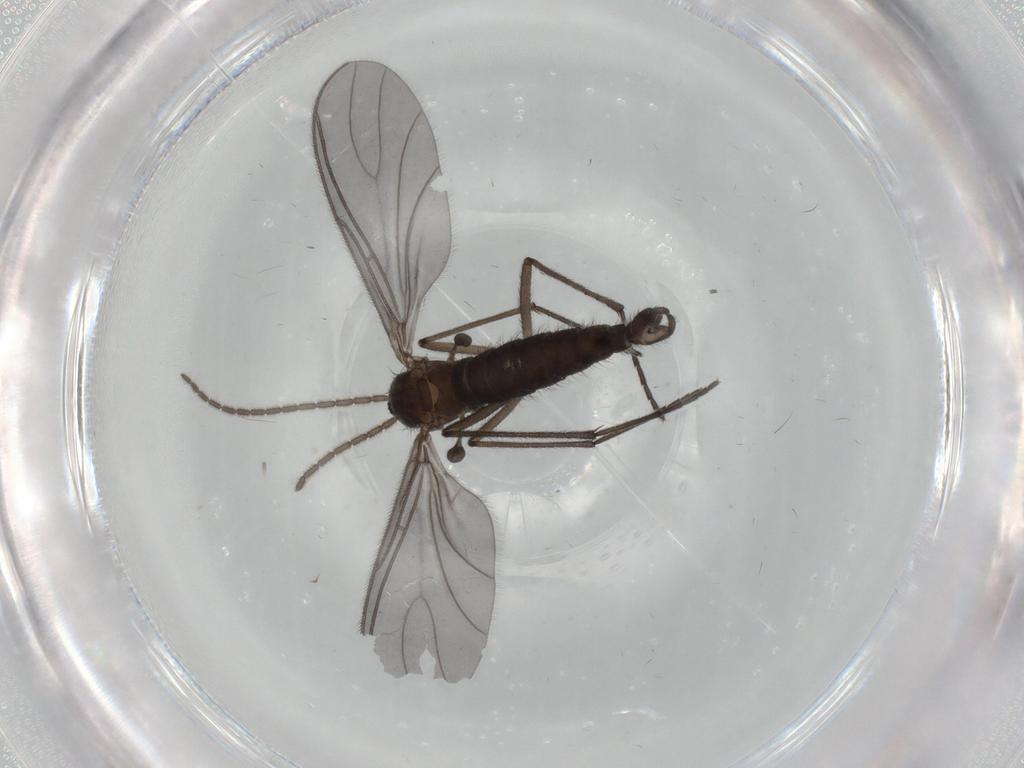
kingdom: Animalia
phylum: Arthropoda
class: Insecta
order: Diptera
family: Sciaridae
